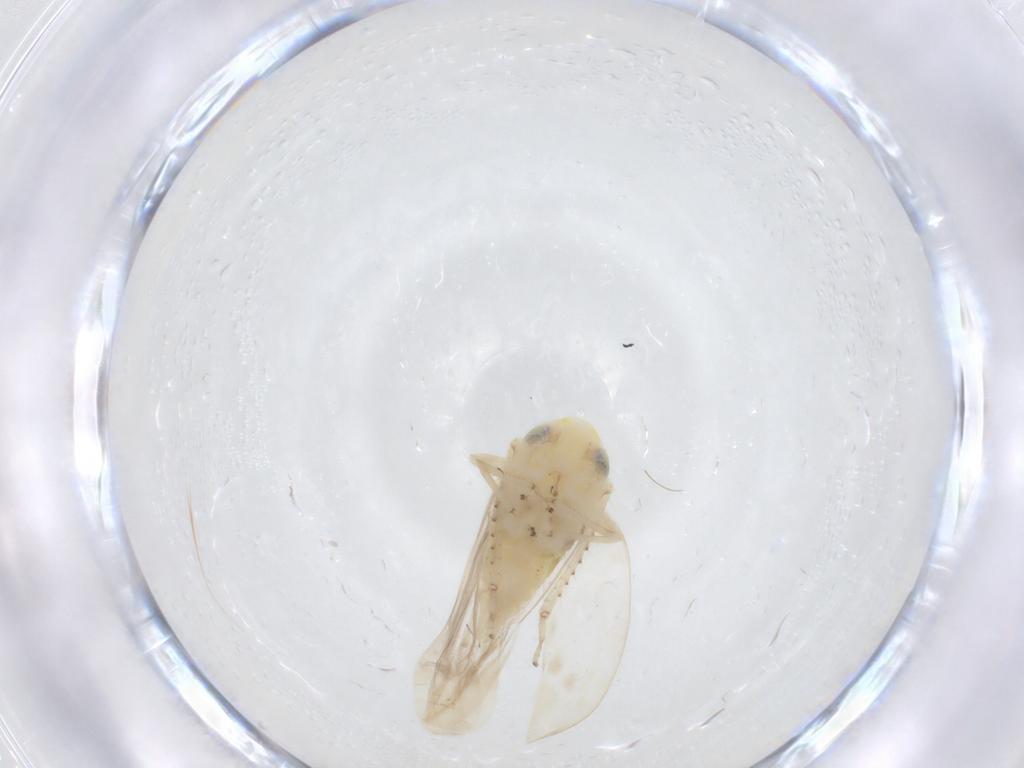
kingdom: Animalia
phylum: Arthropoda
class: Insecta
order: Hemiptera
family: Cicadellidae
